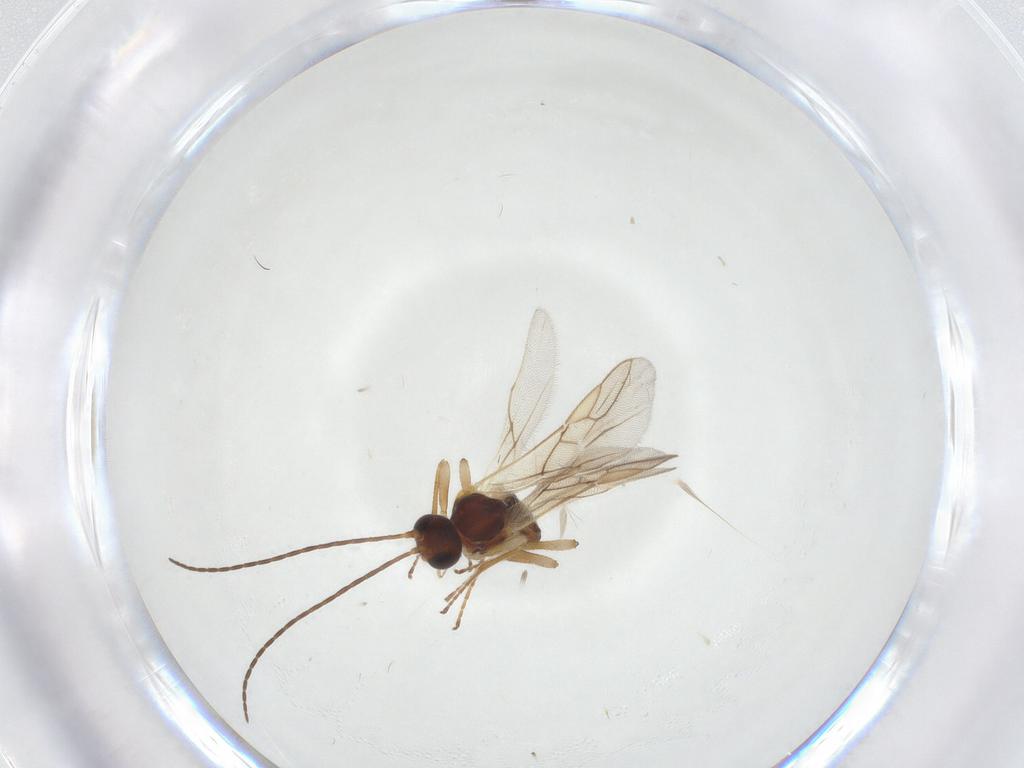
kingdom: Animalia
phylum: Arthropoda
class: Insecta
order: Hymenoptera
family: Braconidae
